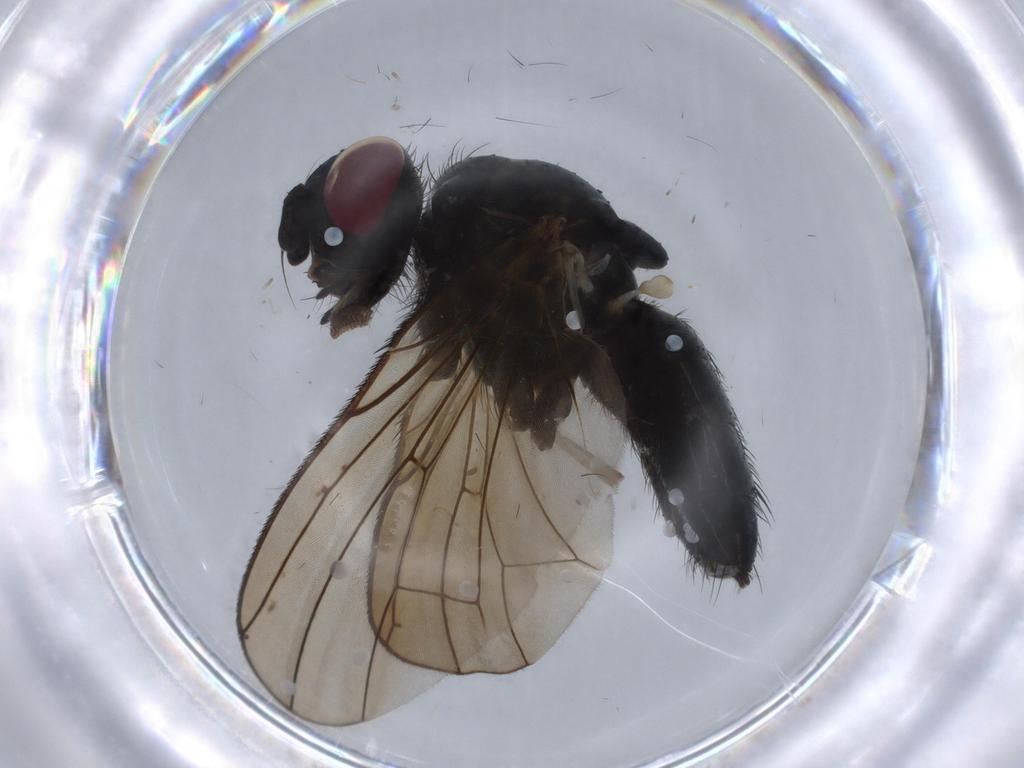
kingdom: Animalia
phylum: Arthropoda
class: Insecta
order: Diptera
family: Anthomyiidae
